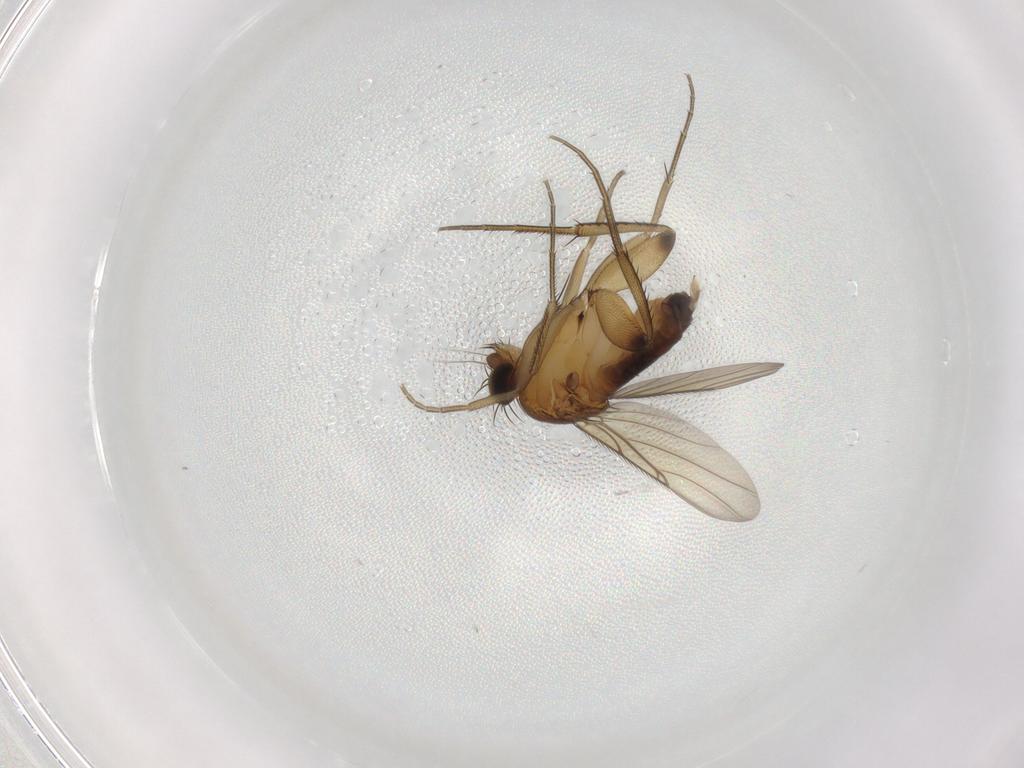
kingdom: Animalia
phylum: Arthropoda
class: Insecta
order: Diptera
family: Phoridae
